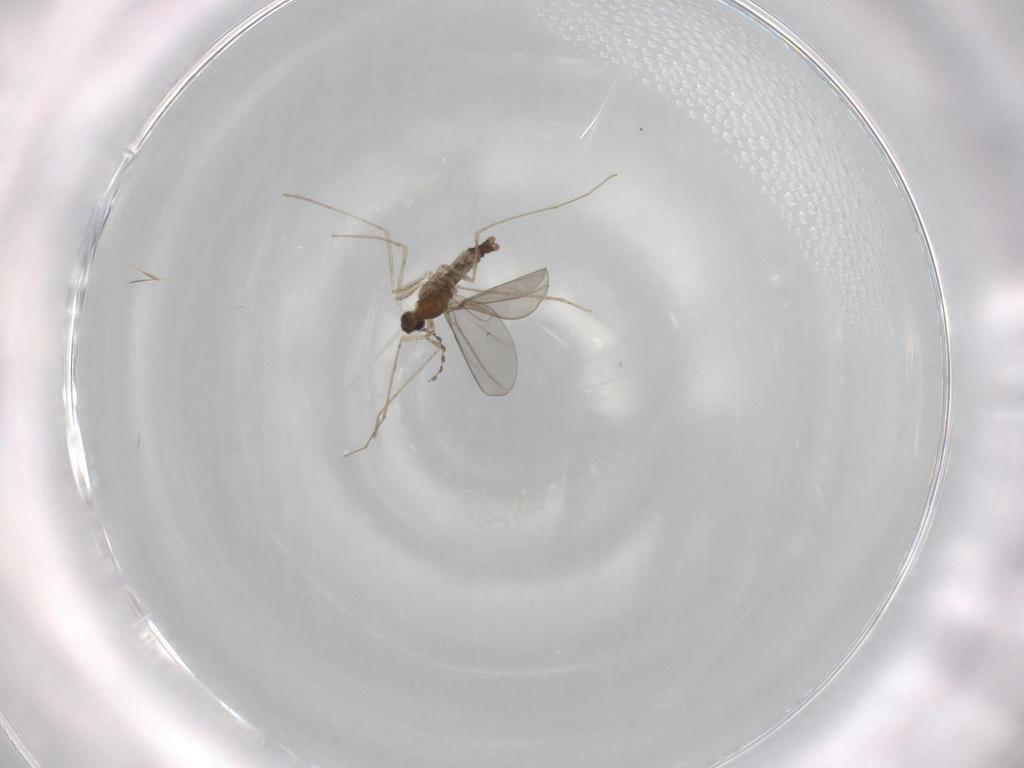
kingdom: Animalia
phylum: Arthropoda
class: Insecta
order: Diptera
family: Cecidomyiidae
